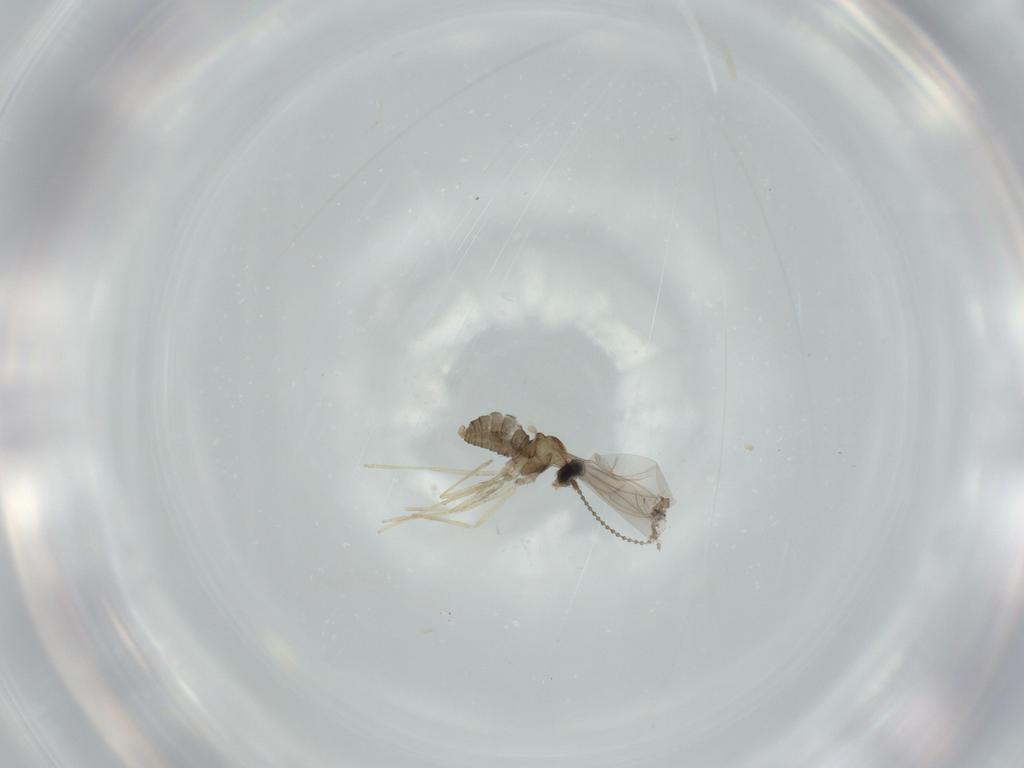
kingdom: Animalia
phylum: Arthropoda
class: Insecta
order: Diptera
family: Cecidomyiidae
